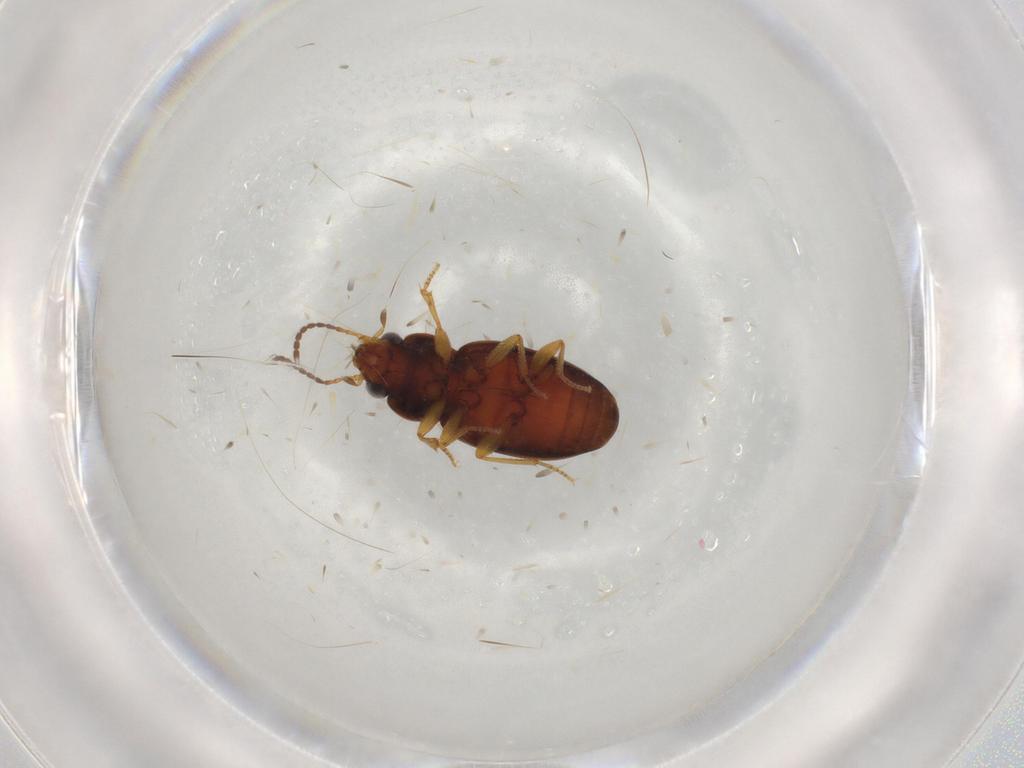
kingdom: Animalia
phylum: Arthropoda
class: Insecta
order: Coleoptera
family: Carabidae
